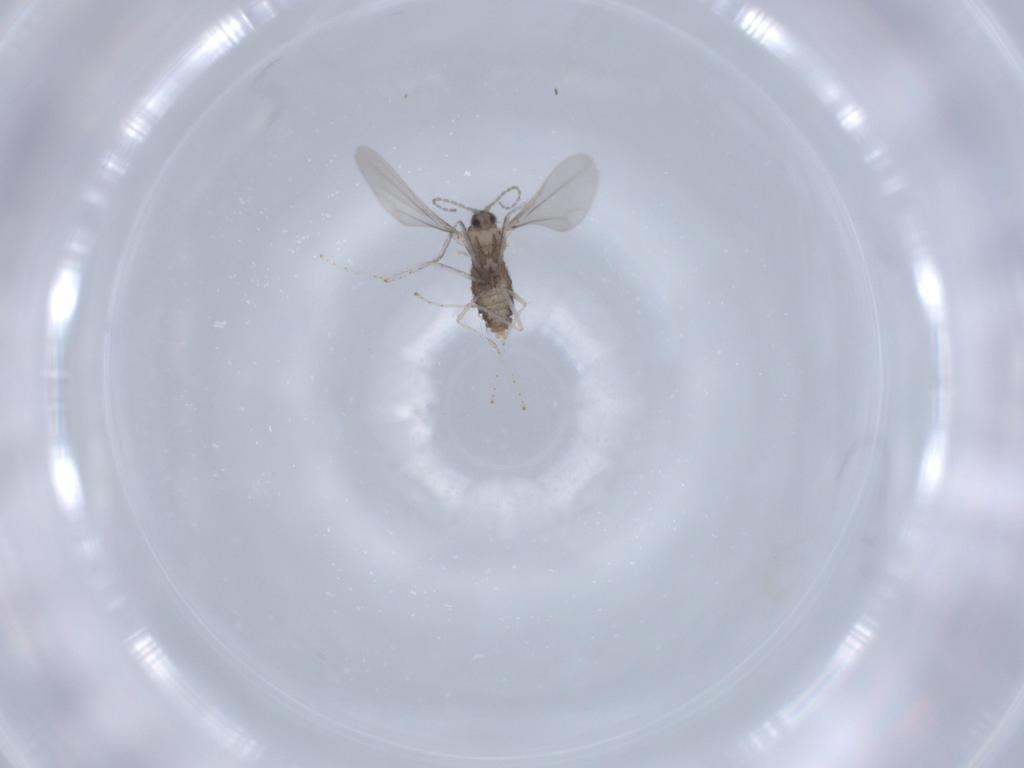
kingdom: Animalia
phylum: Arthropoda
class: Insecta
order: Diptera
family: Cecidomyiidae
